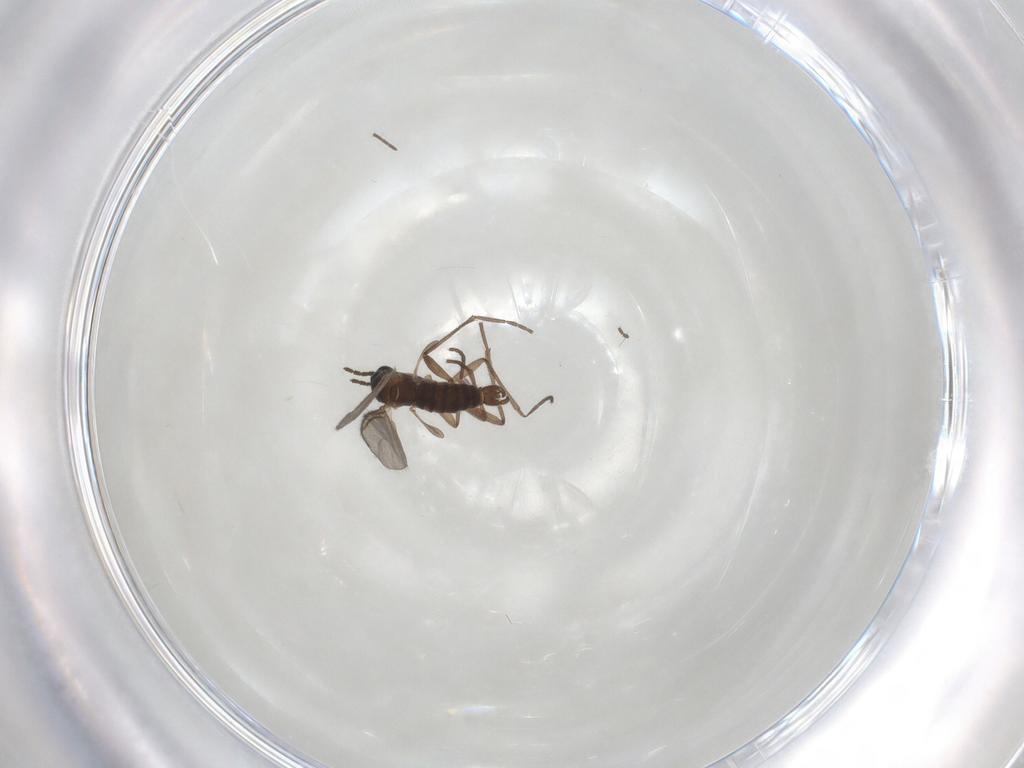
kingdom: Animalia
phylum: Arthropoda
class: Insecta
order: Diptera
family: Sciaridae
